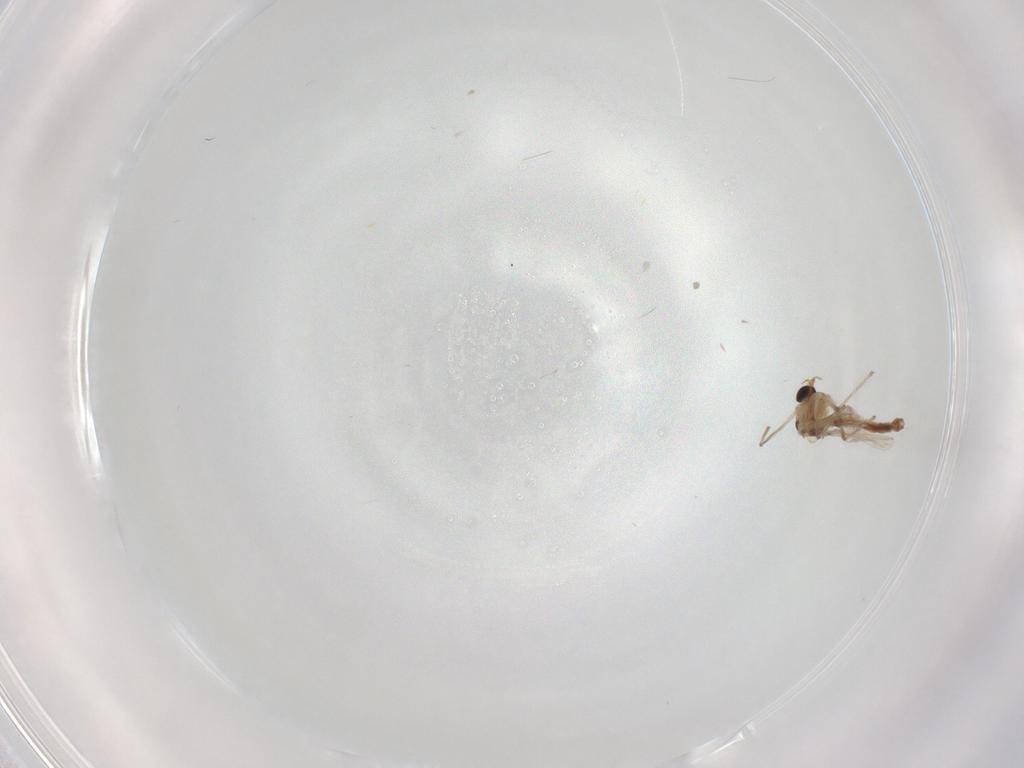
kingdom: Animalia
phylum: Arthropoda
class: Insecta
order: Diptera
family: Chironomidae
